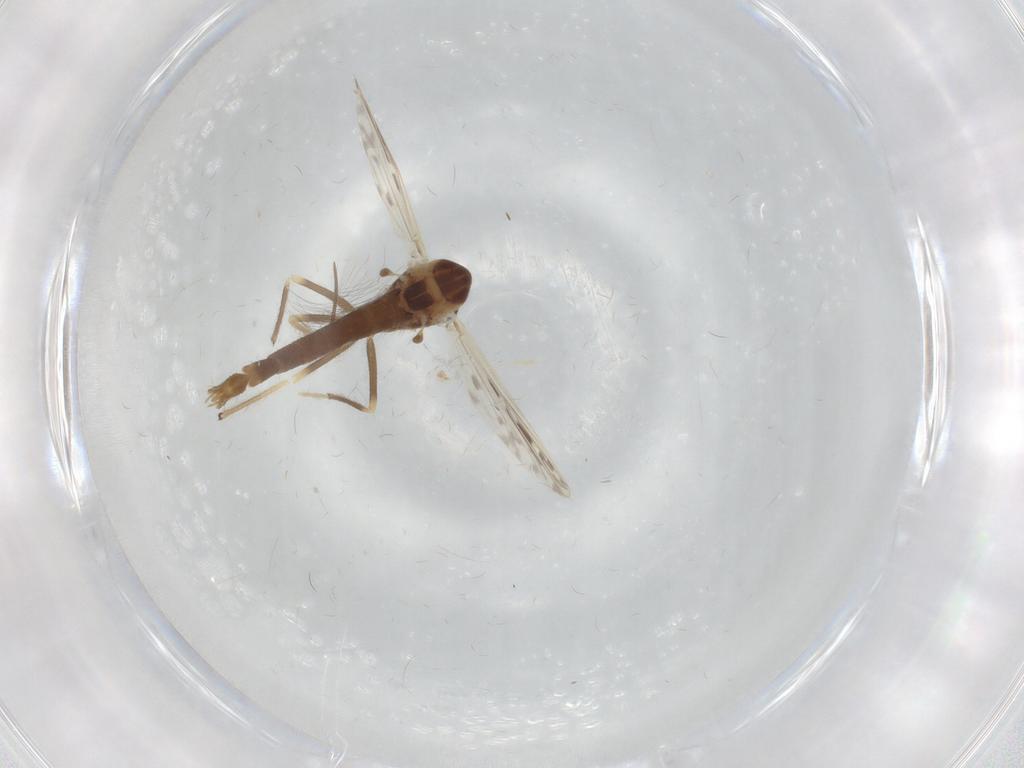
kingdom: Animalia
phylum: Arthropoda
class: Insecta
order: Diptera
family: Chironomidae
